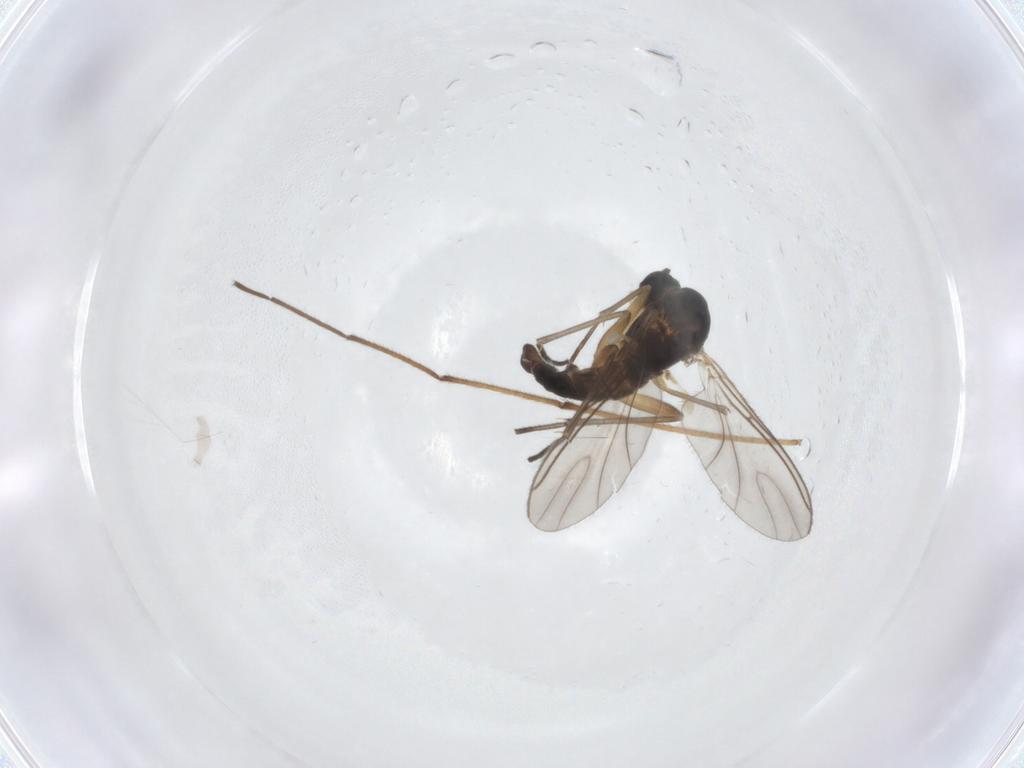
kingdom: Animalia
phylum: Arthropoda
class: Insecta
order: Diptera
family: Sciaridae
